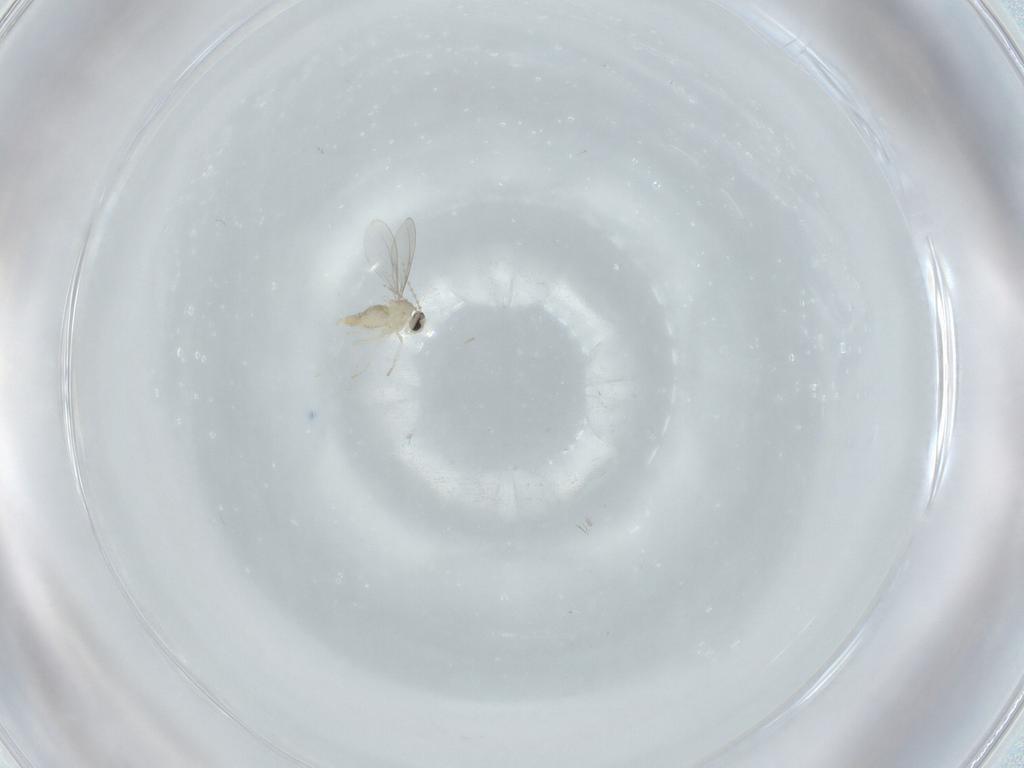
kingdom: Animalia
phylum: Arthropoda
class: Insecta
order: Diptera
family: Cecidomyiidae
